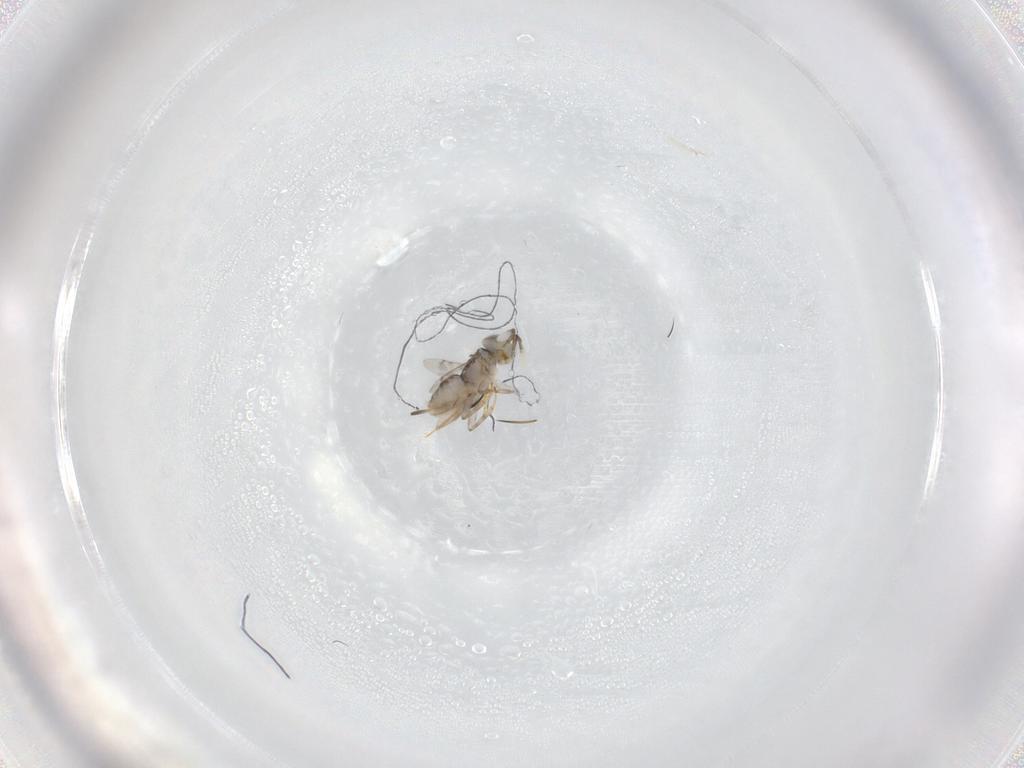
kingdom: Animalia
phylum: Arthropoda
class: Insecta
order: Hymenoptera
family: Encyrtidae
